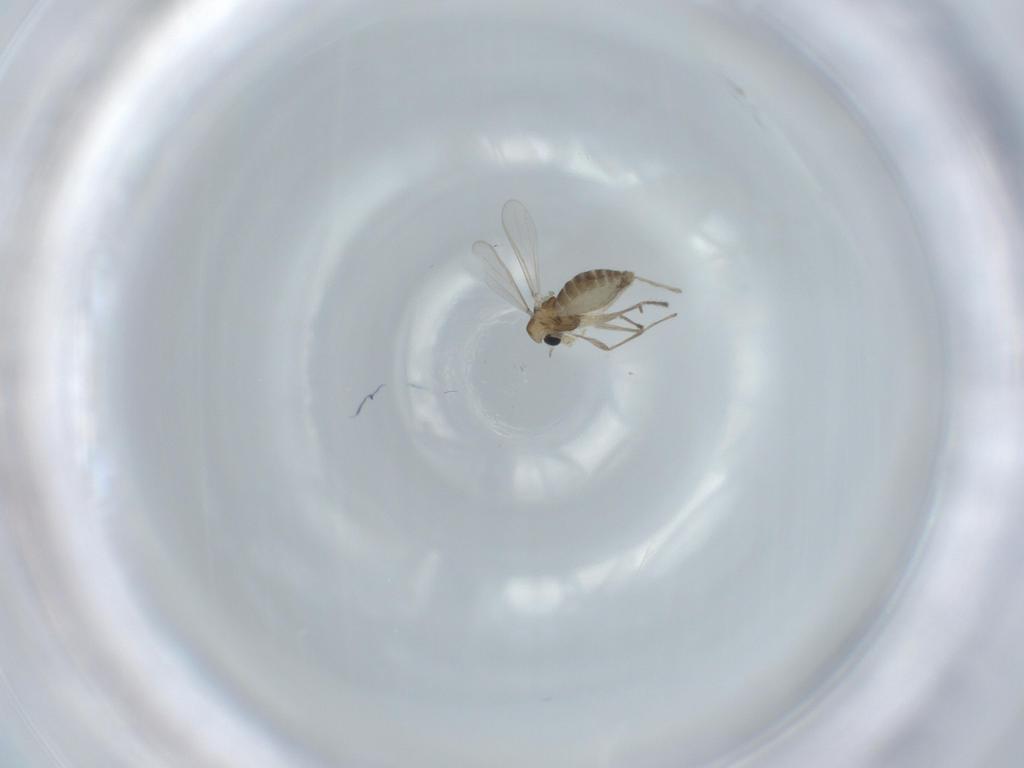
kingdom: Animalia
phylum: Arthropoda
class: Insecta
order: Diptera
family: Chironomidae
